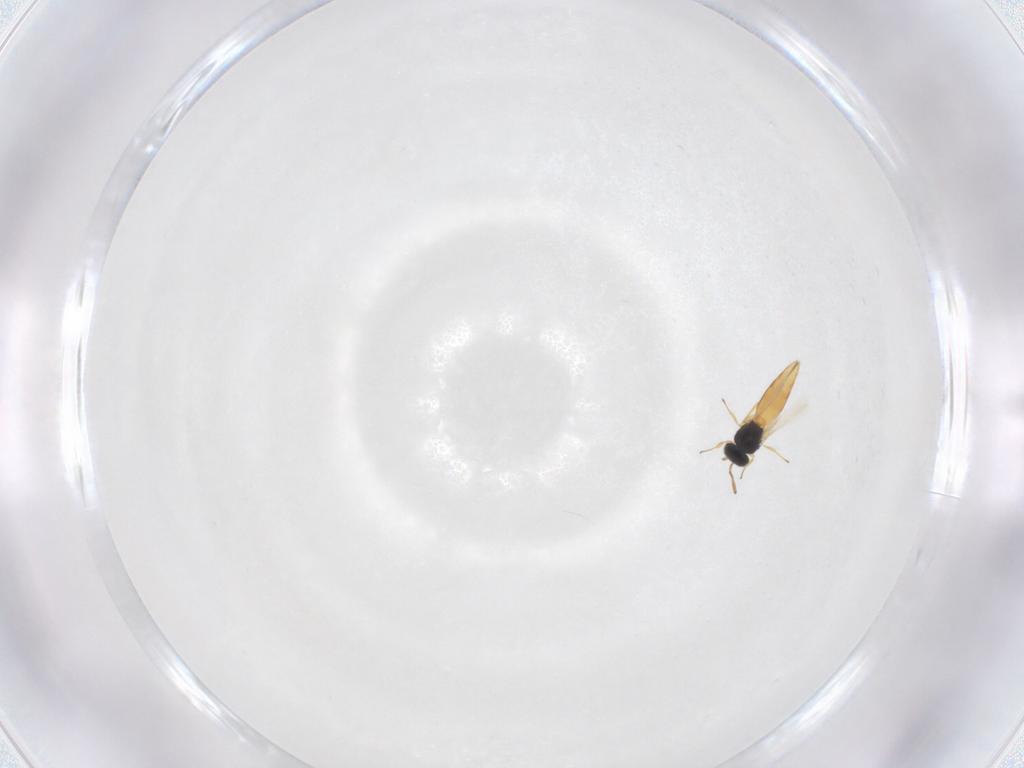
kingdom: Animalia
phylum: Arthropoda
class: Insecta
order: Hymenoptera
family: Scelionidae
